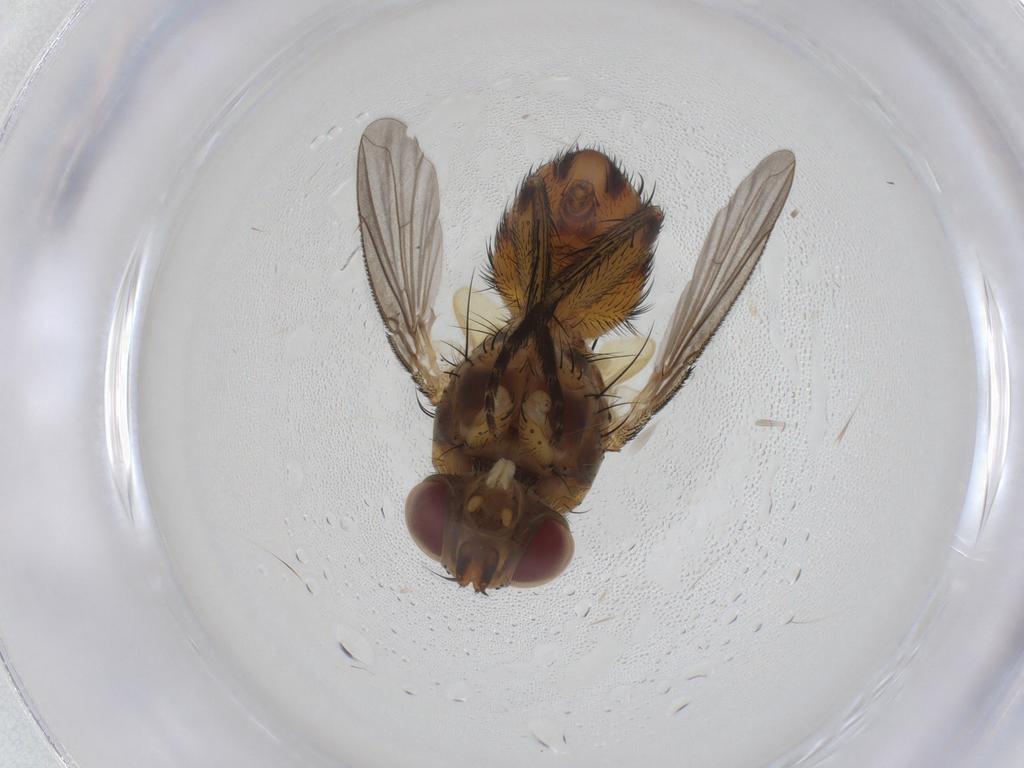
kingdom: Animalia
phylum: Arthropoda
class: Insecta
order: Diptera
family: Tachinidae
